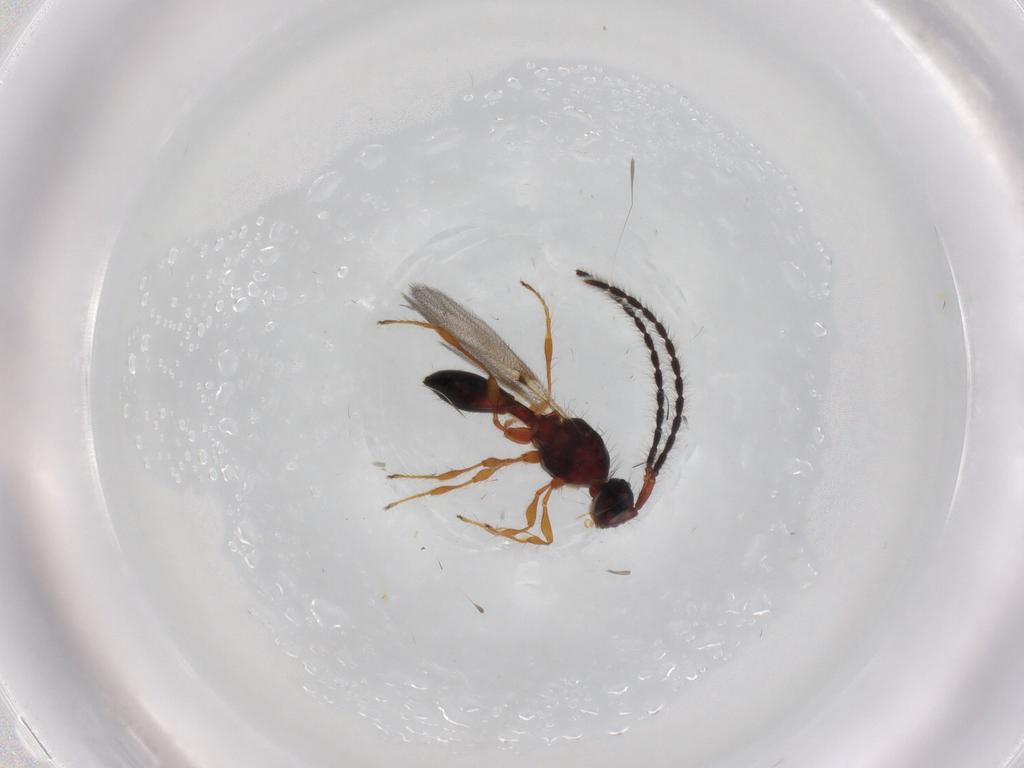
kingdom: Animalia
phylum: Arthropoda
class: Insecta
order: Hymenoptera
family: Diapriidae
